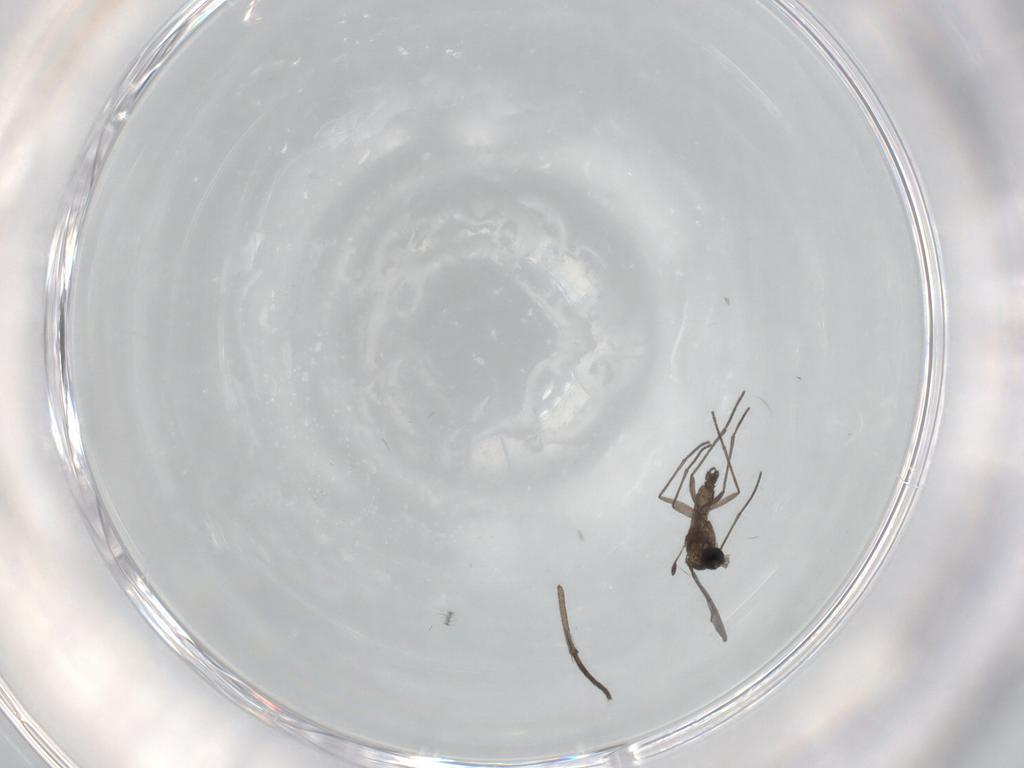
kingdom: Animalia
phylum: Arthropoda
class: Insecta
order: Diptera
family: Ditomyiidae
